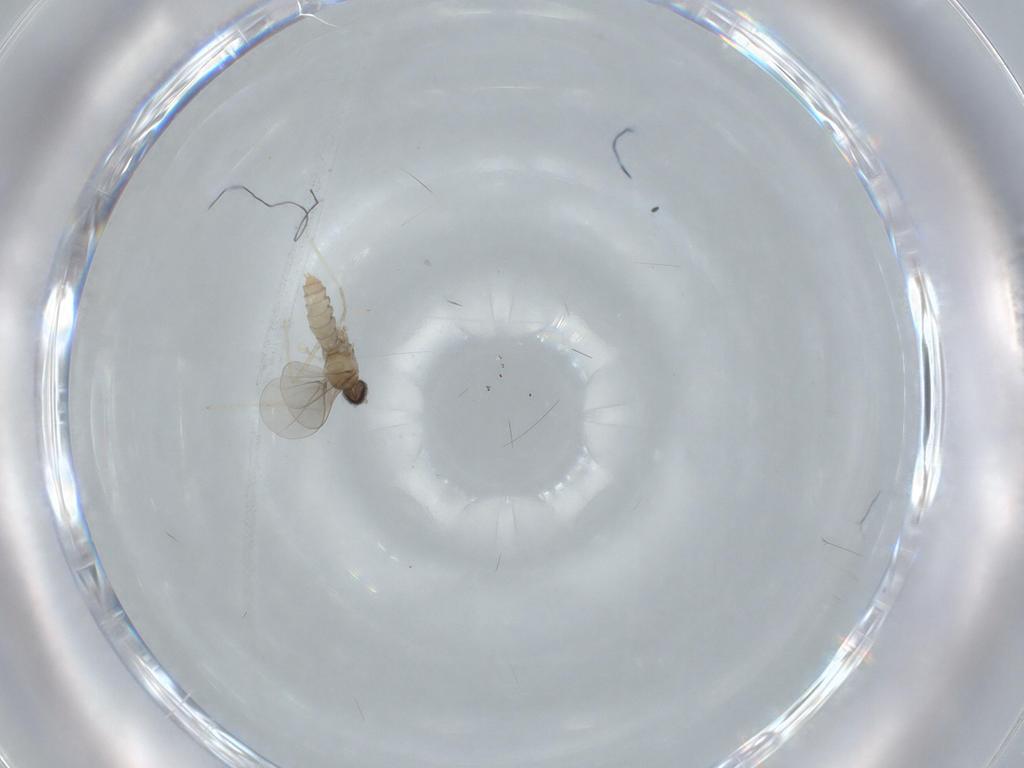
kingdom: Animalia
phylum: Arthropoda
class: Insecta
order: Diptera
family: Cecidomyiidae
